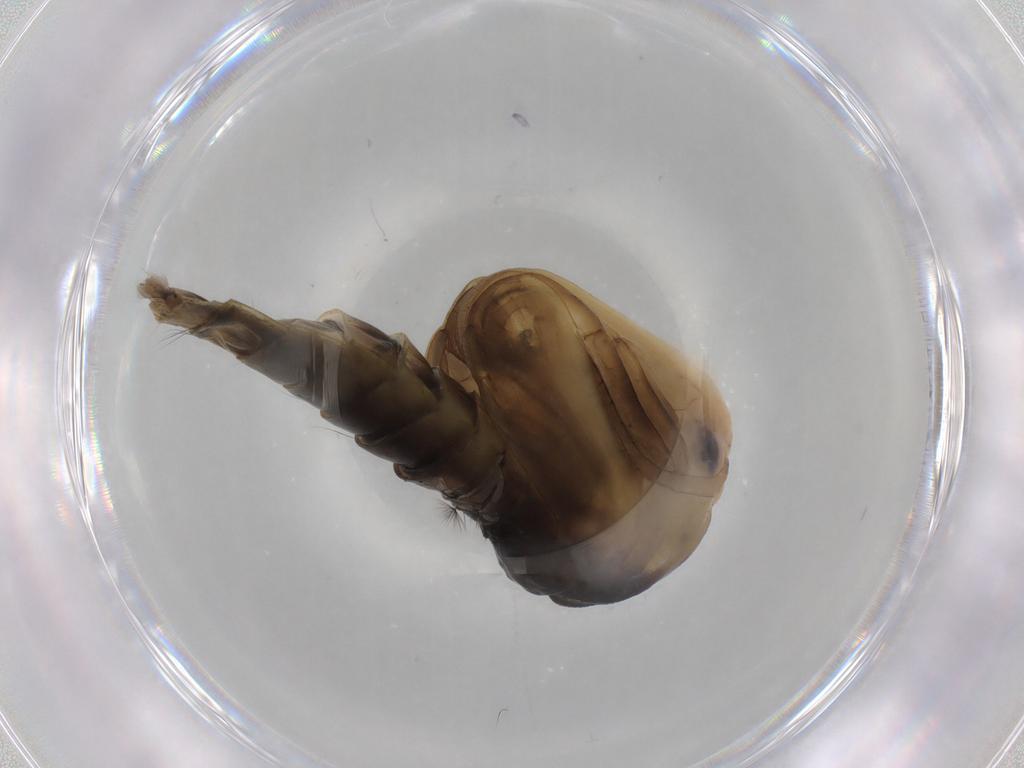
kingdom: Animalia
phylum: Arthropoda
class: Insecta
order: Diptera
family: Chironomidae
